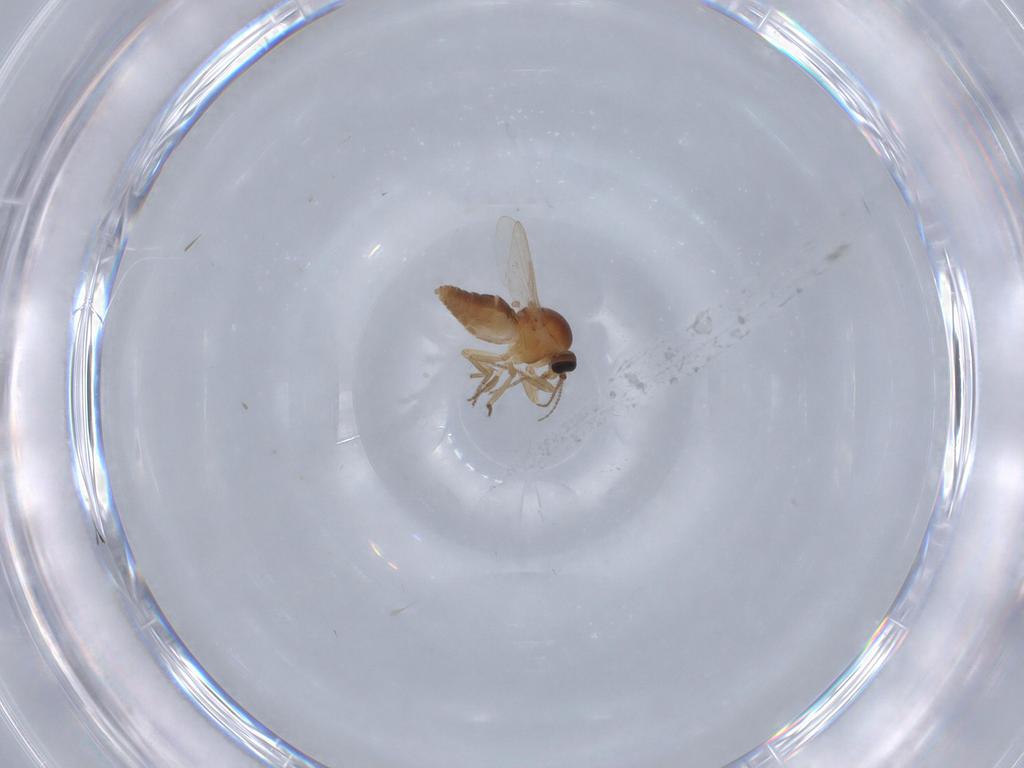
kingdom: Animalia
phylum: Arthropoda
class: Insecta
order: Diptera
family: Ceratopogonidae
